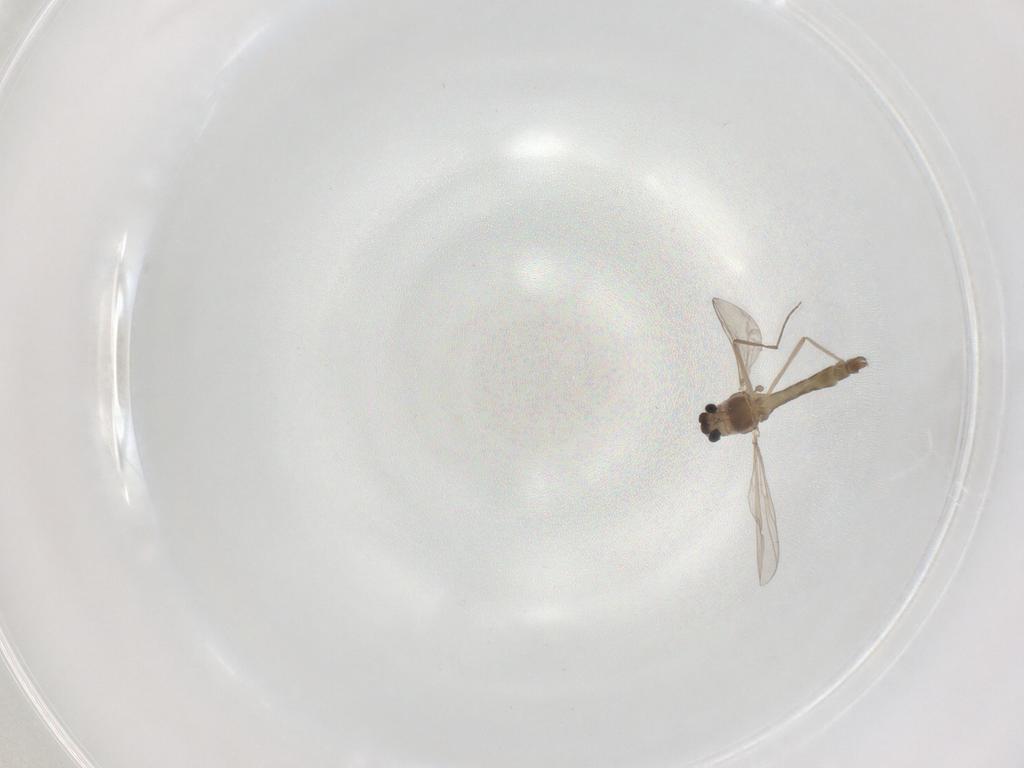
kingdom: Animalia
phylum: Arthropoda
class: Insecta
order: Diptera
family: Chironomidae
